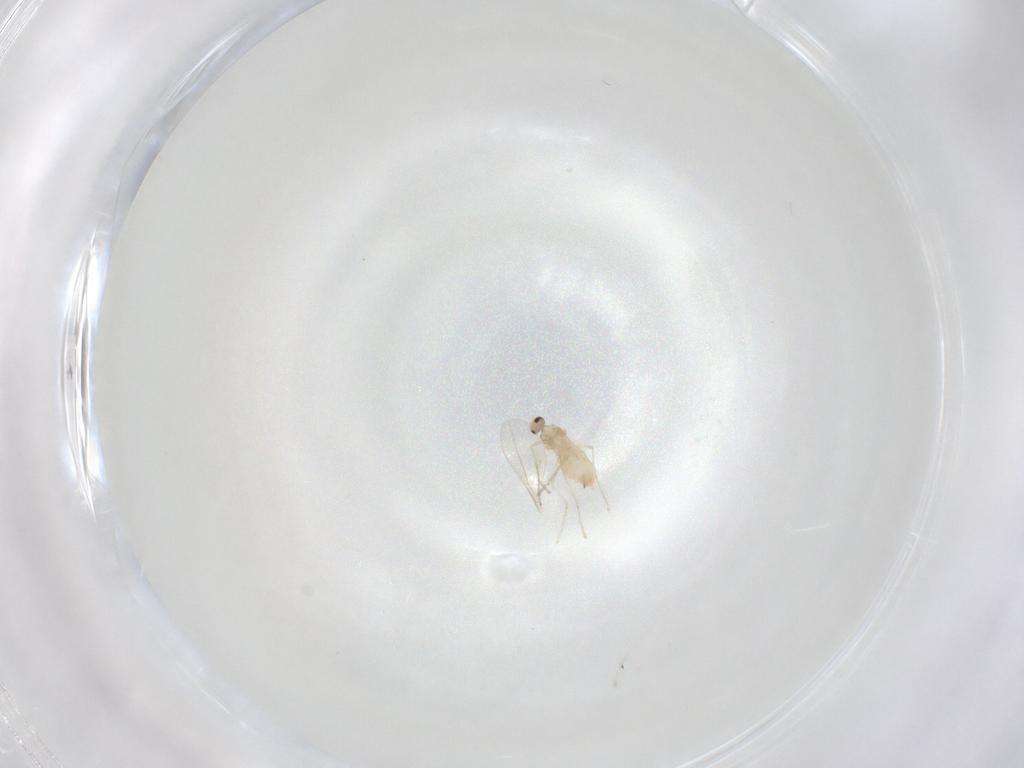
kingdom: Animalia
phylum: Arthropoda
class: Insecta
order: Diptera
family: Cecidomyiidae
